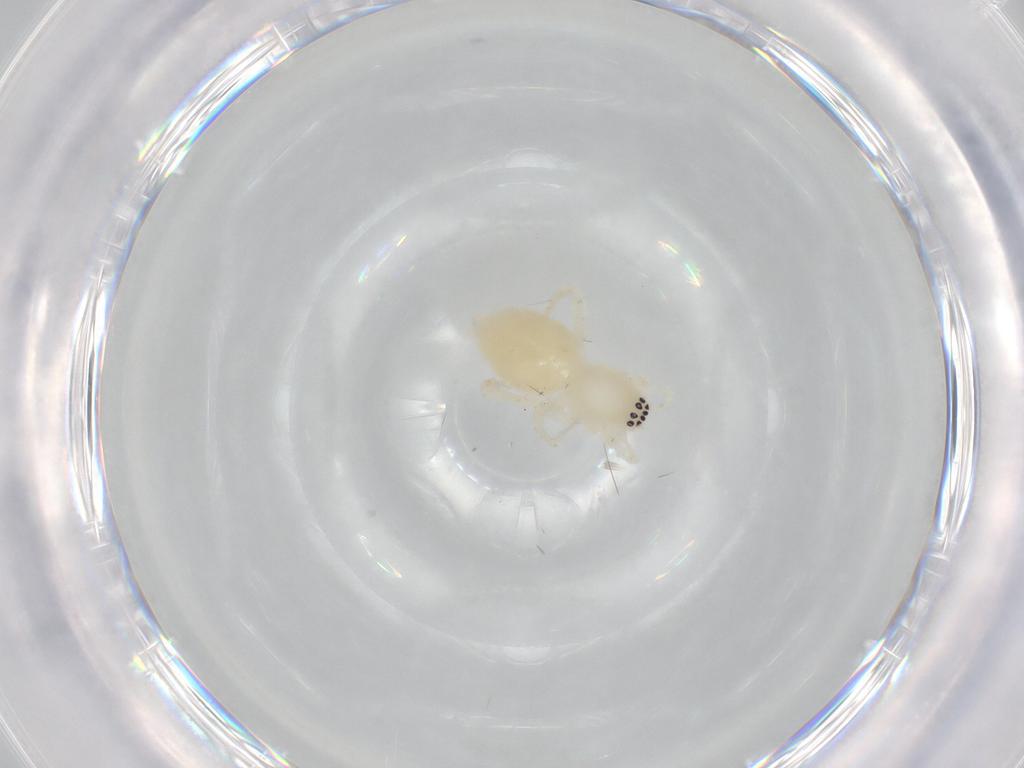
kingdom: Animalia
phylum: Arthropoda
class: Arachnida
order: Araneae
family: Anyphaenidae
